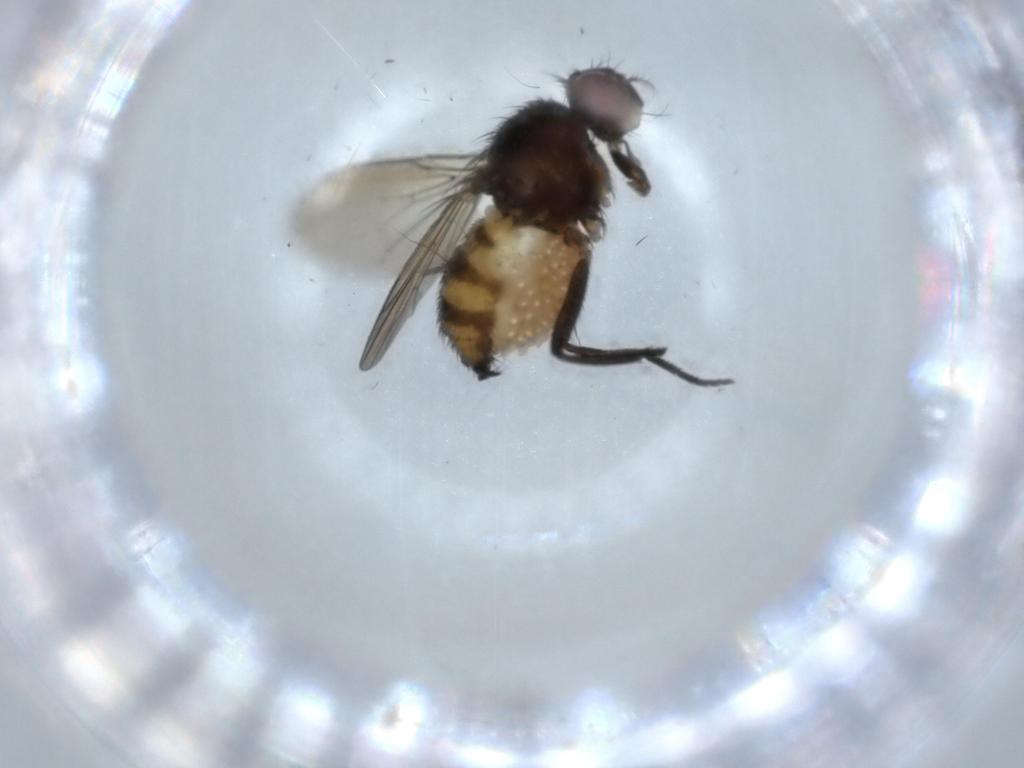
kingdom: Animalia
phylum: Arthropoda
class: Insecta
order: Diptera
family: Anthomyiidae
